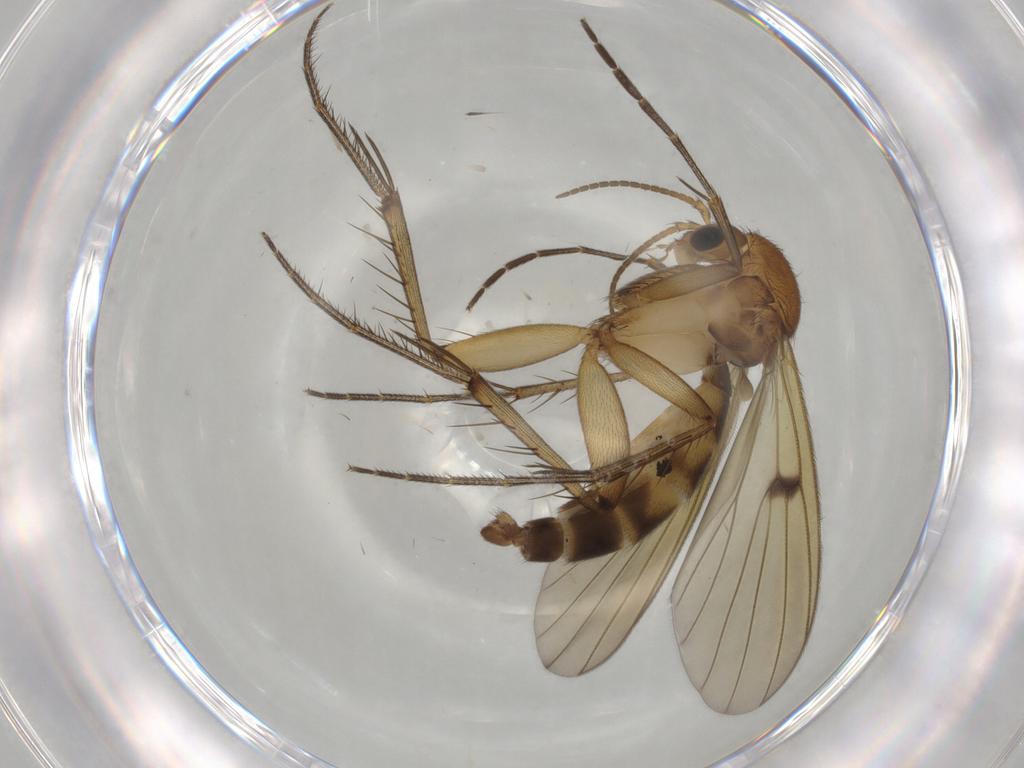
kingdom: Animalia
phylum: Arthropoda
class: Insecta
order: Diptera
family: Mycetophilidae
